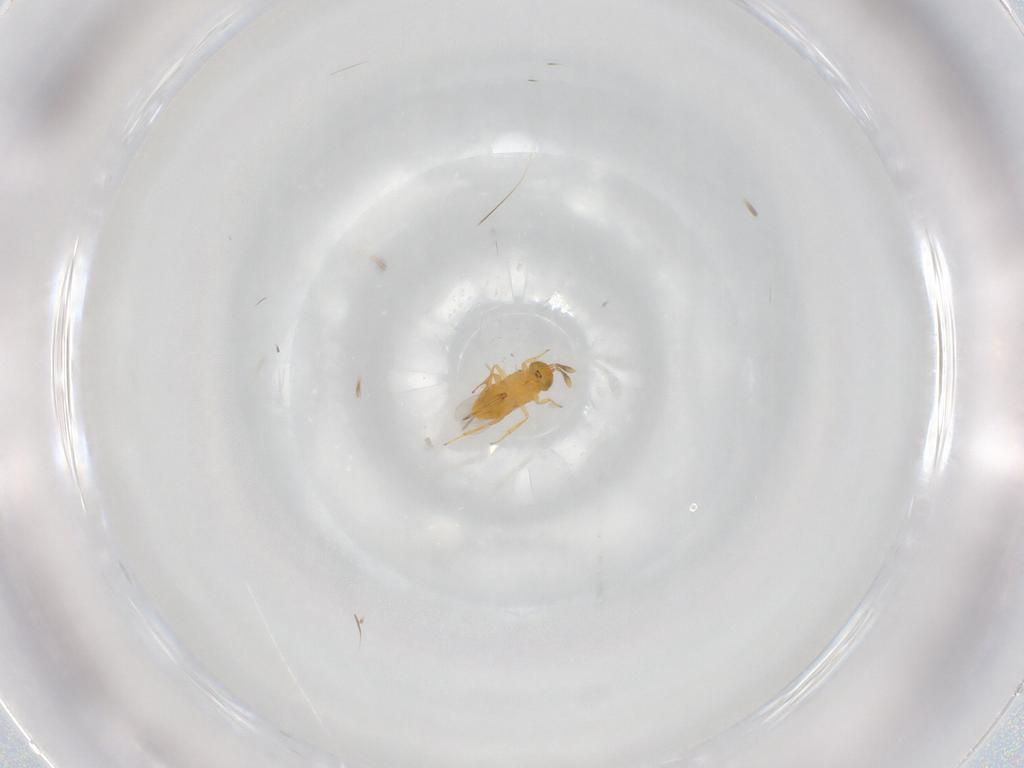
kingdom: Animalia
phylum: Arthropoda
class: Insecta
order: Hymenoptera
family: Encyrtidae
